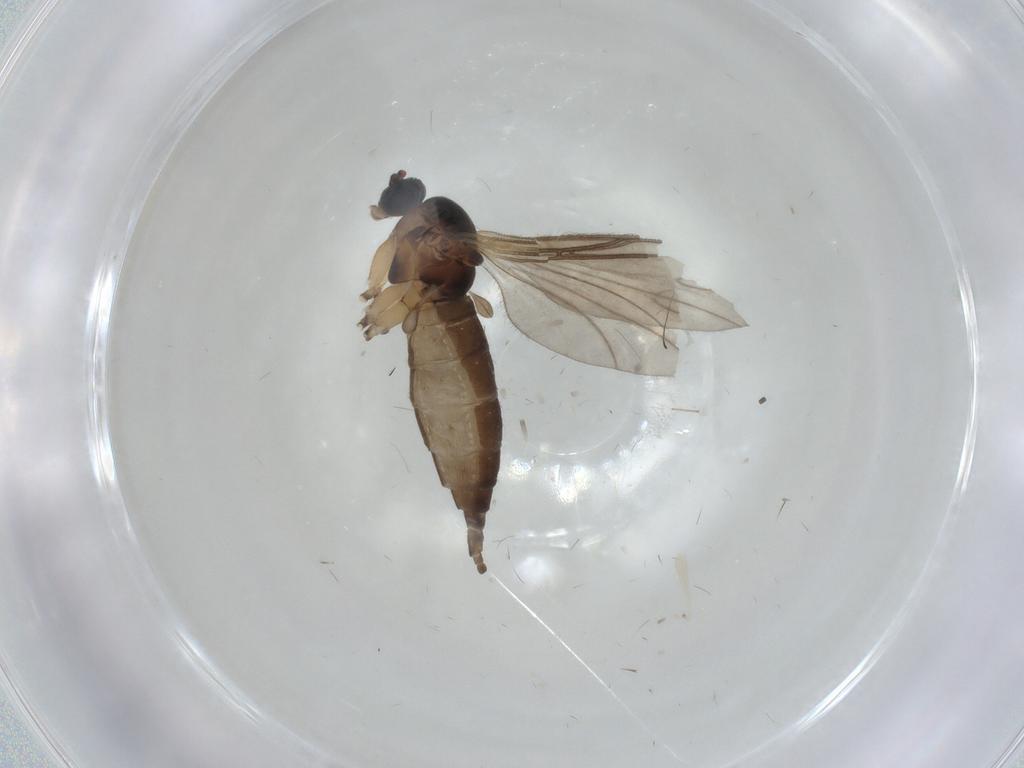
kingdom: Animalia
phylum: Arthropoda
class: Insecta
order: Diptera
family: Sciaridae
